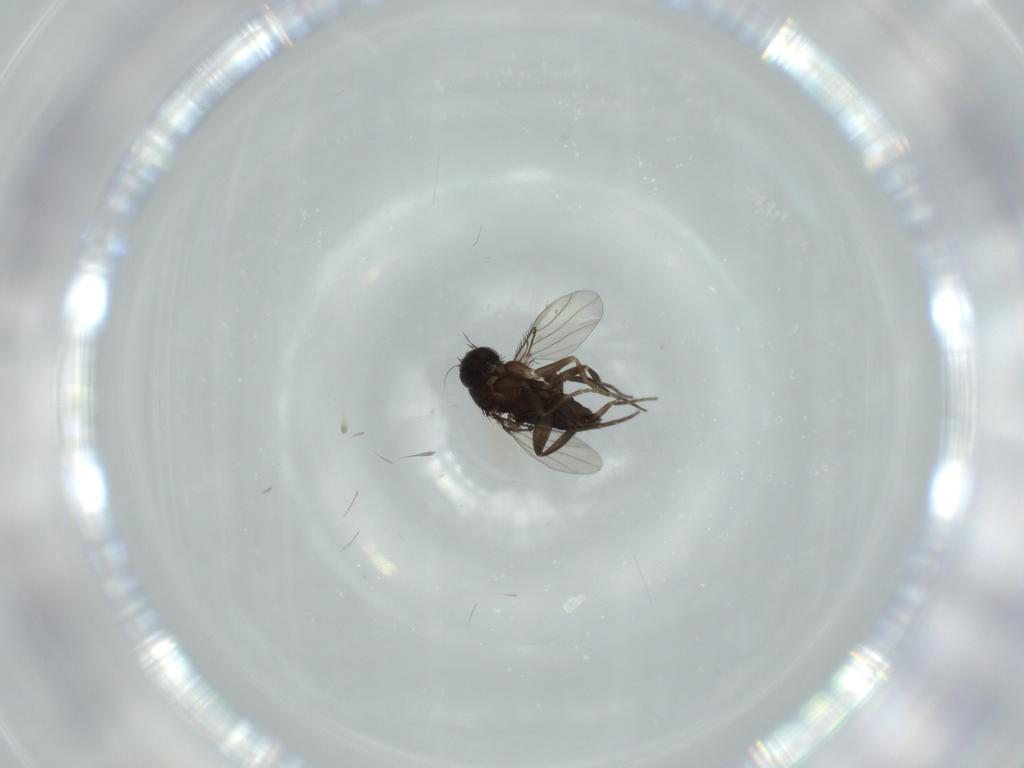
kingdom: Animalia
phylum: Arthropoda
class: Insecta
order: Diptera
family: Phoridae
